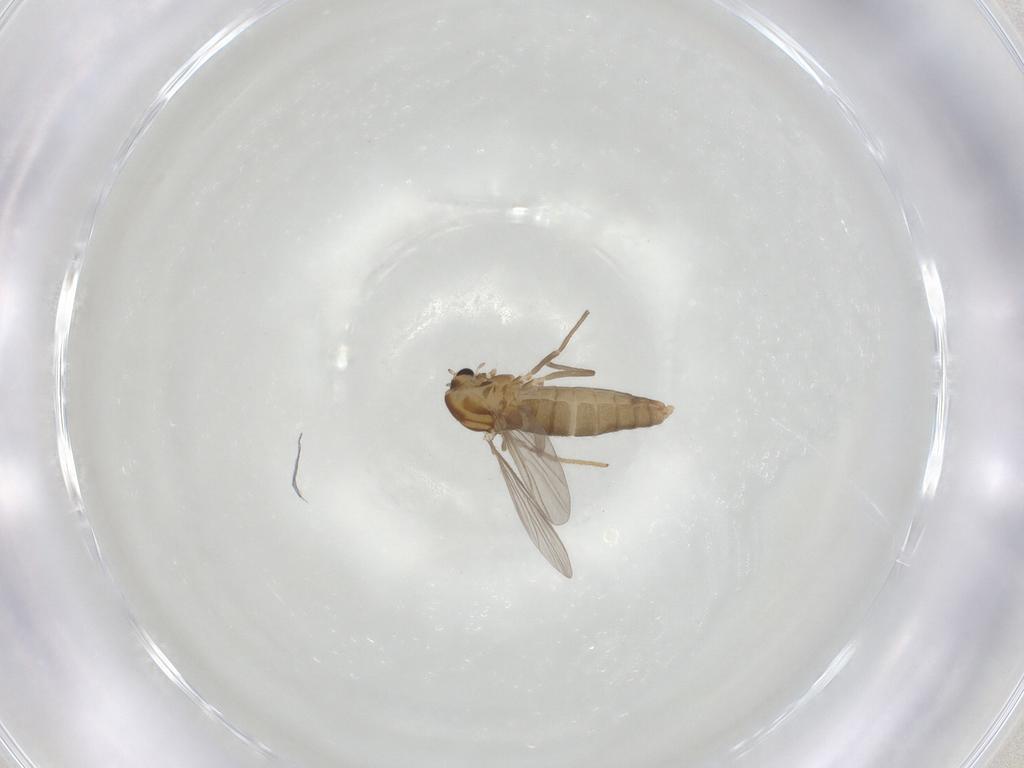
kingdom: Animalia
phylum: Arthropoda
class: Insecta
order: Diptera
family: Chironomidae
